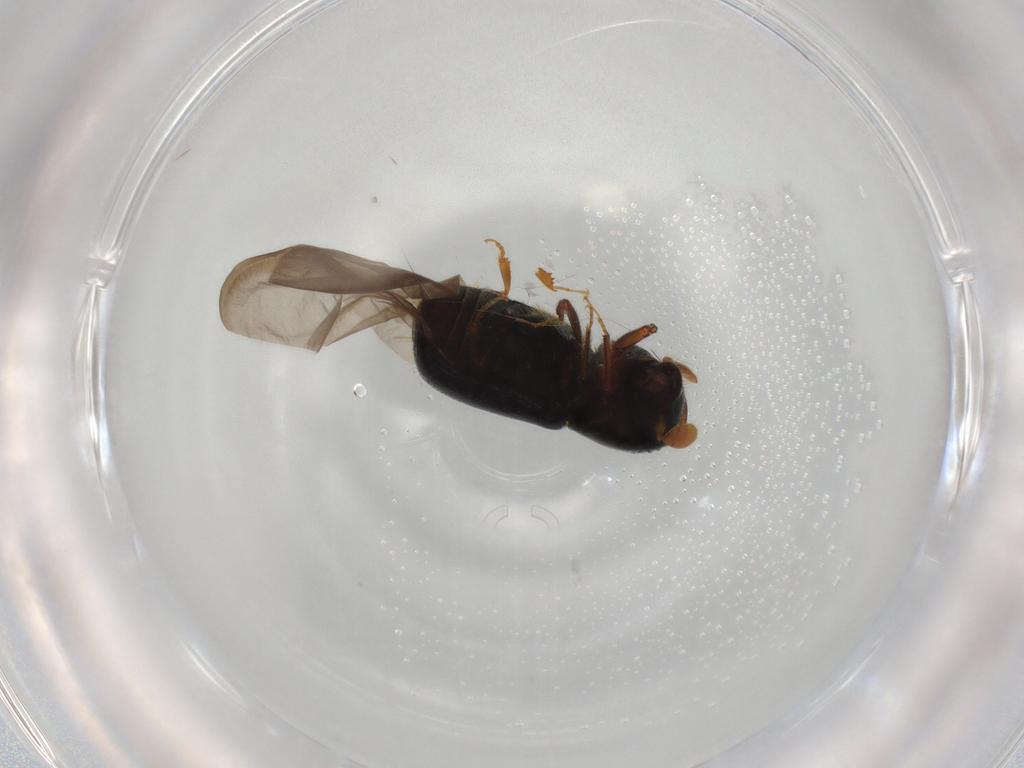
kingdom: Animalia
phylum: Arthropoda
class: Insecta
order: Coleoptera
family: Curculionidae
